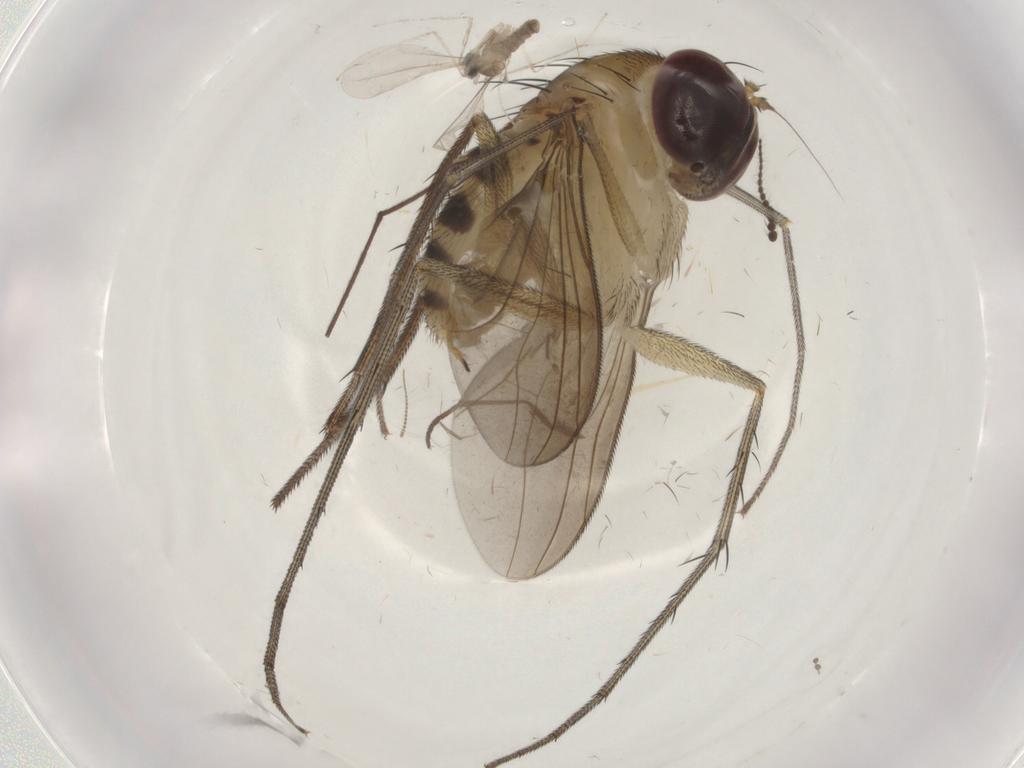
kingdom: Animalia
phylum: Arthropoda
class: Insecta
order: Diptera
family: Dolichopodidae
